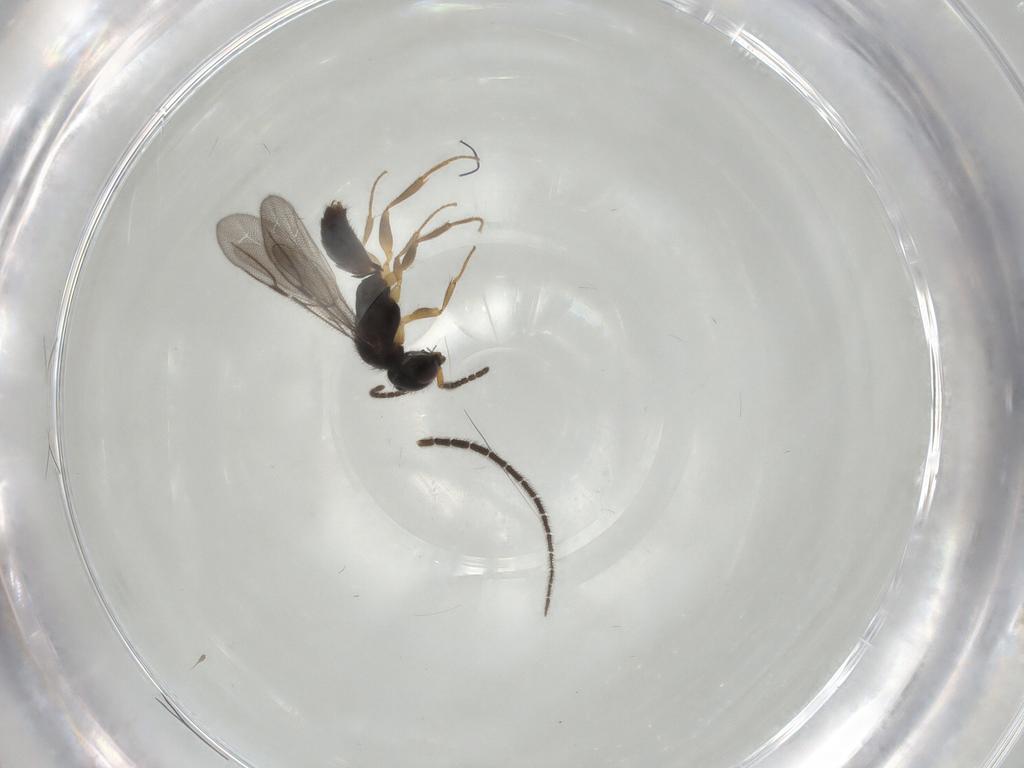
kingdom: Animalia
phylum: Arthropoda
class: Insecta
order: Hymenoptera
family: Bethylidae
